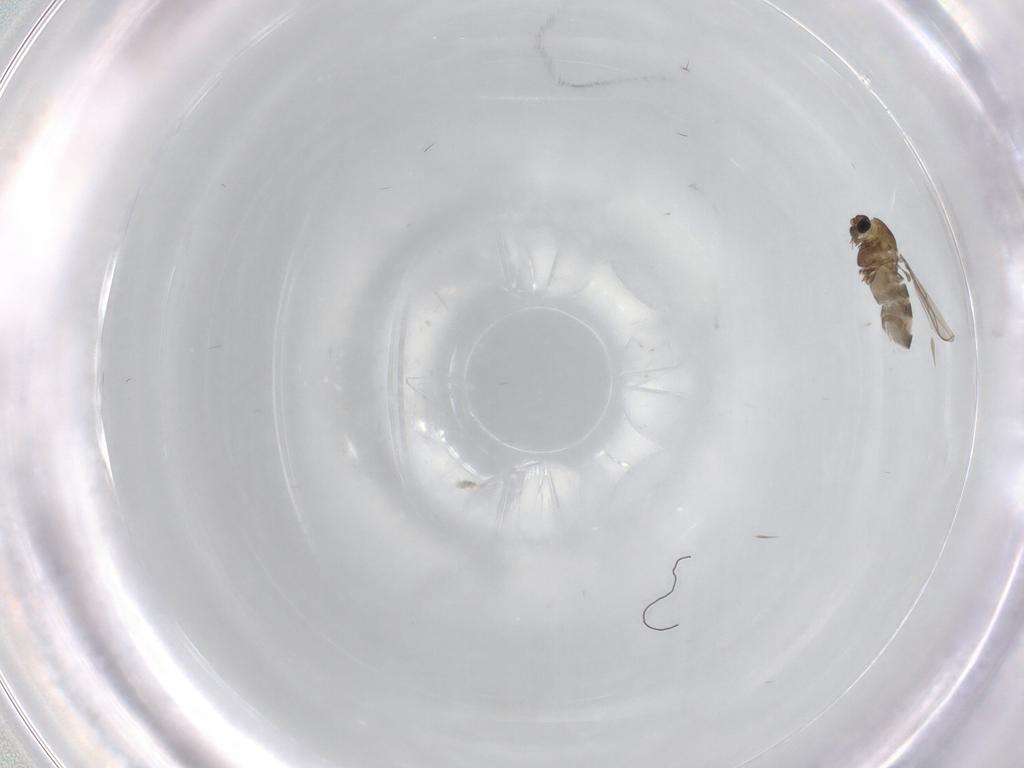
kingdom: Animalia
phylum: Arthropoda
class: Insecta
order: Diptera
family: Cecidomyiidae
